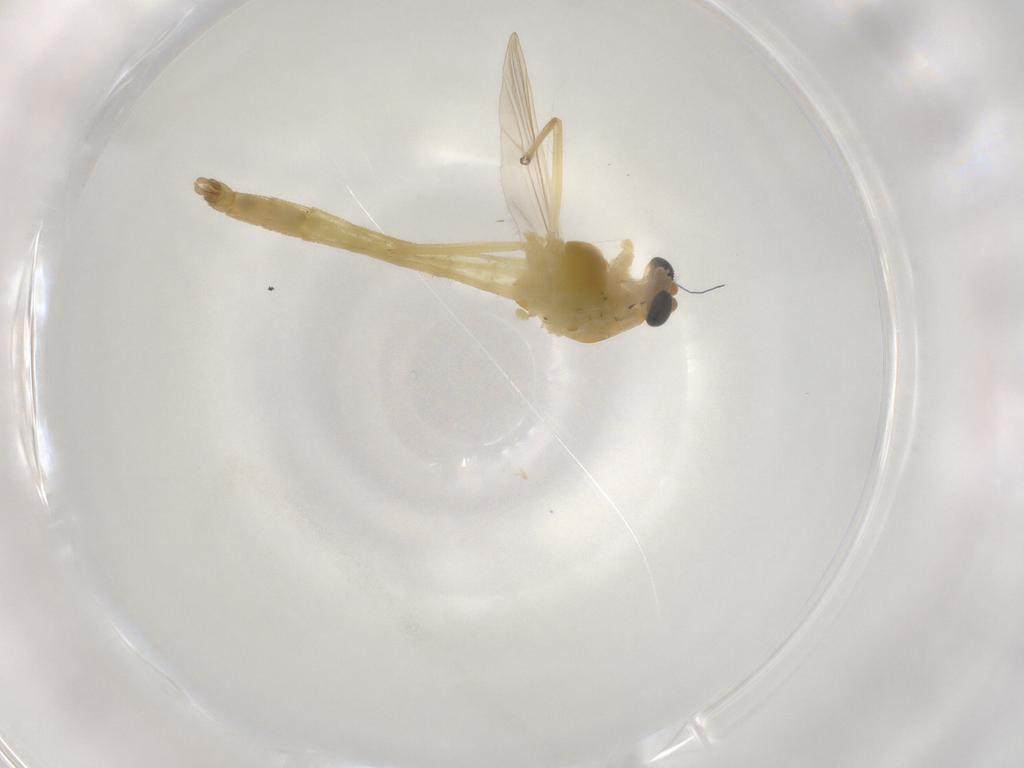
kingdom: Animalia
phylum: Arthropoda
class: Insecta
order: Diptera
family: Chironomidae
